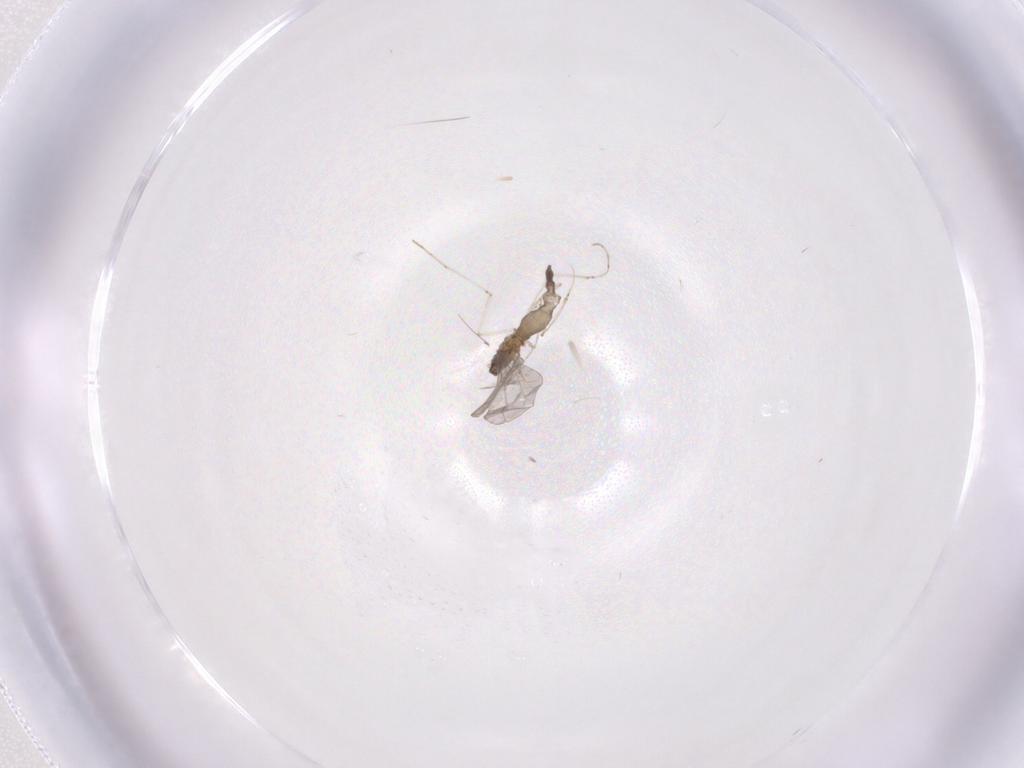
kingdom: Animalia
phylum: Arthropoda
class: Insecta
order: Diptera
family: Cecidomyiidae
